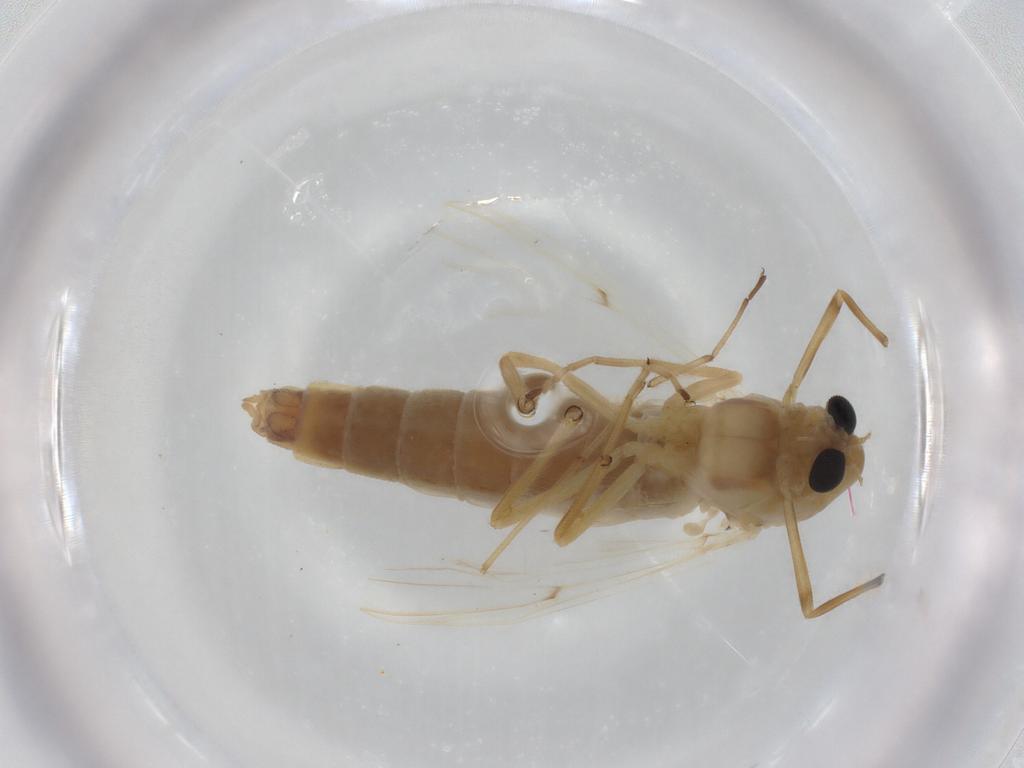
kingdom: Animalia
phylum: Arthropoda
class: Insecta
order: Diptera
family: Chironomidae
